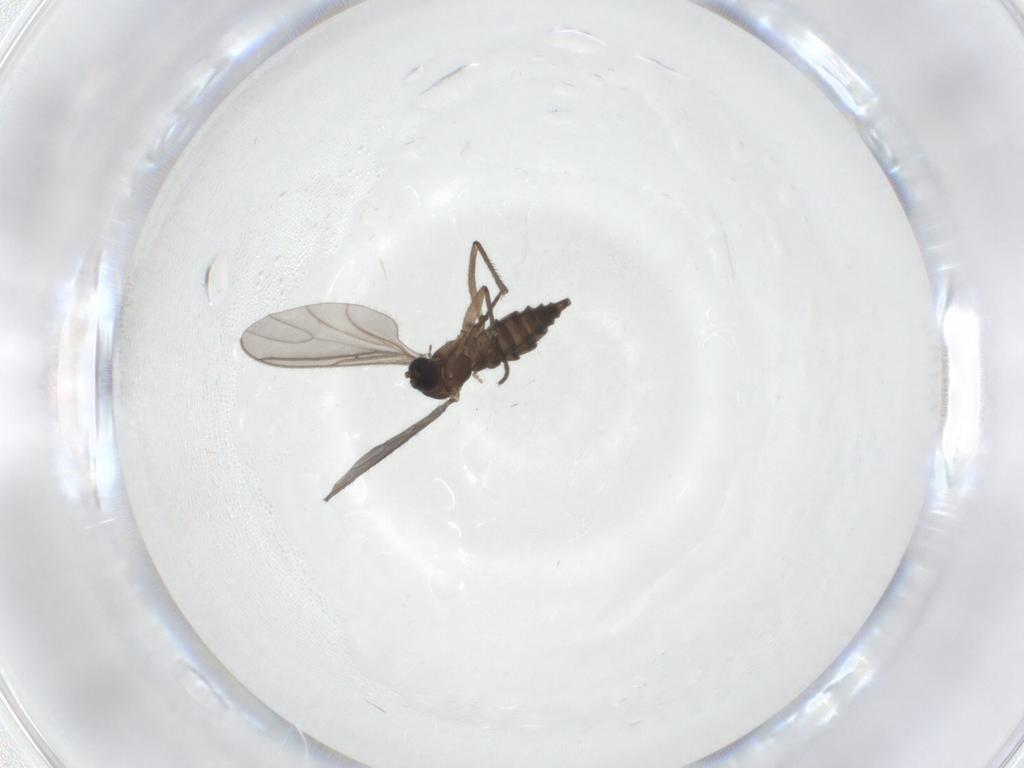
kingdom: Animalia
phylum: Arthropoda
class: Insecta
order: Diptera
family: Sciaridae
